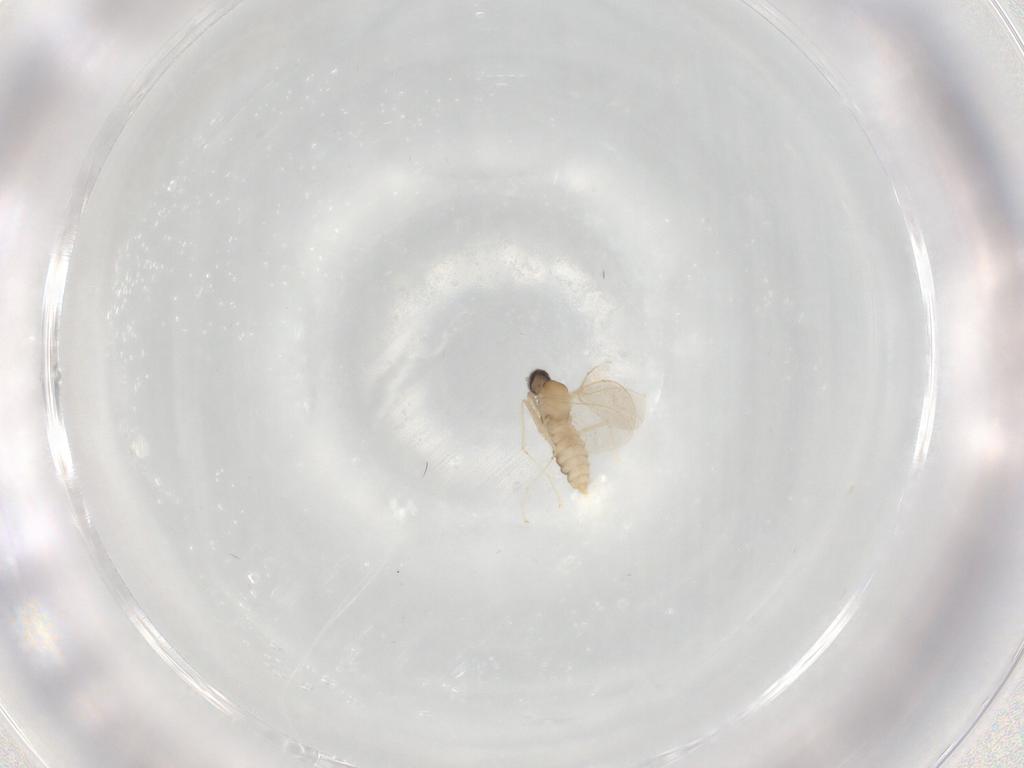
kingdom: Animalia
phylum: Arthropoda
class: Insecta
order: Diptera
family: Cecidomyiidae
